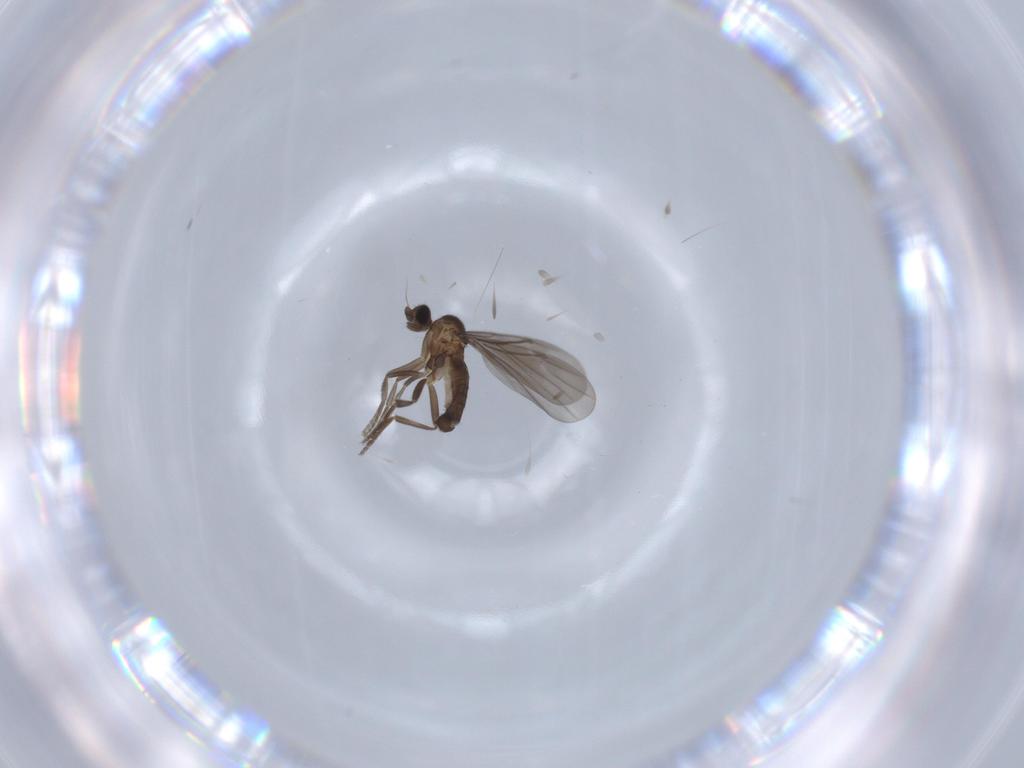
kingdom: Animalia
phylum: Arthropoda
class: Insecta
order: Diptera
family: Phoridae
